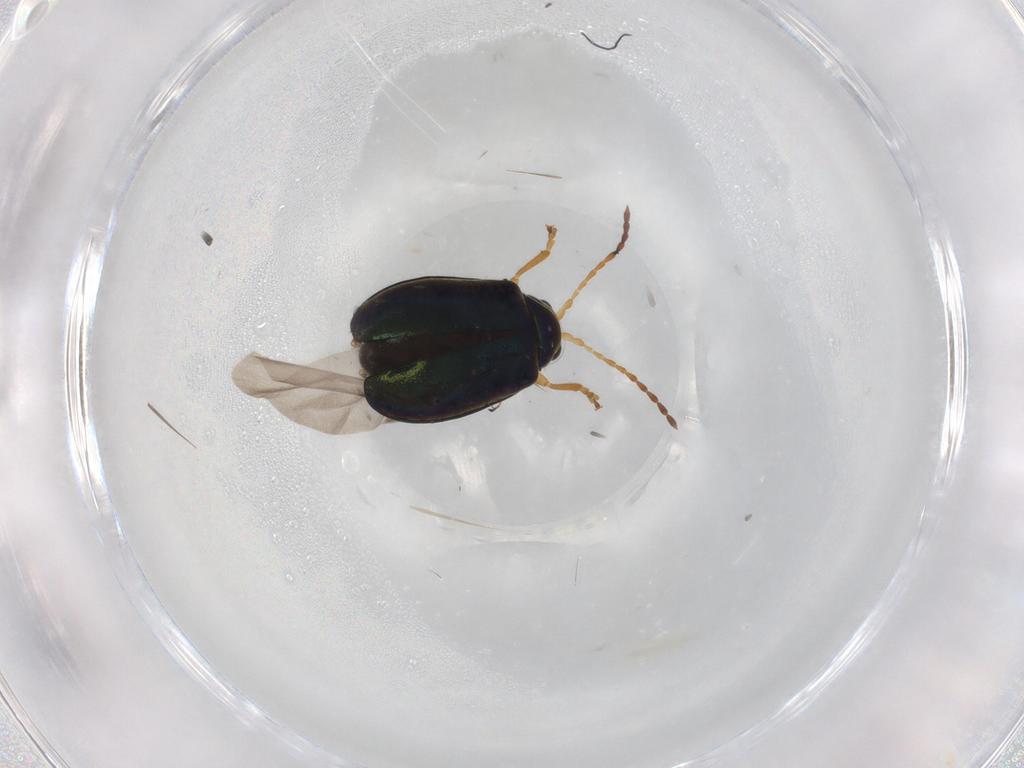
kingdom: Animalia
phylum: Arthropoda
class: Insecta
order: Coleoptera
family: Chrysomelidae
